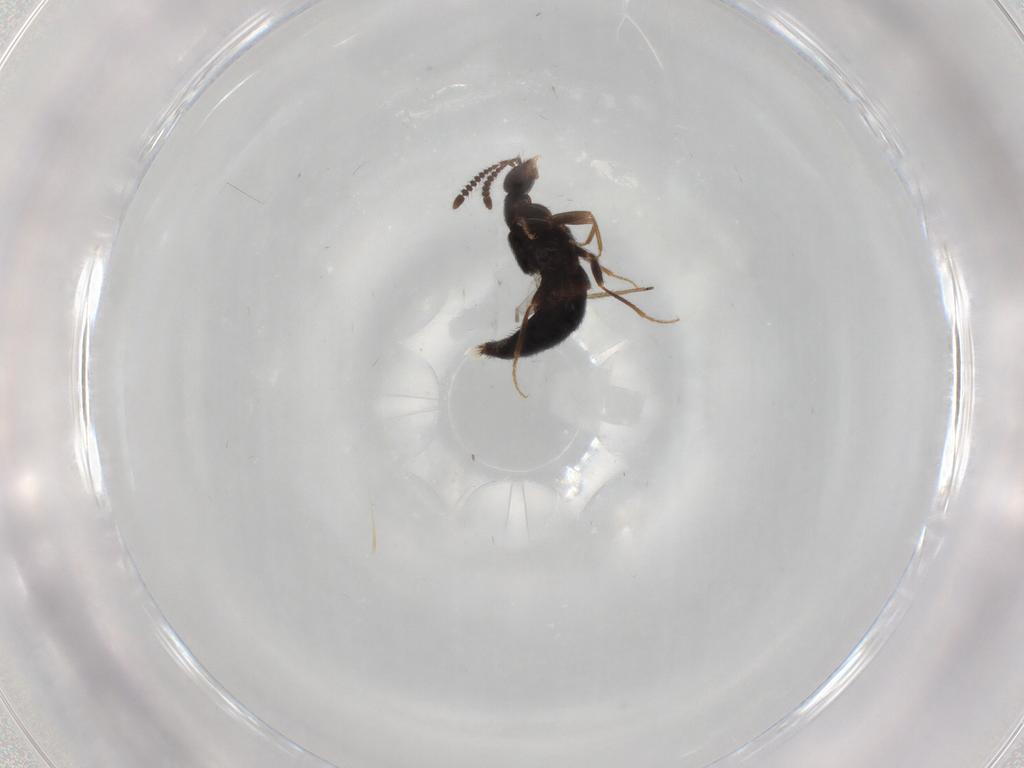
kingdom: Animalia
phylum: Arthropoda
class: Insecta
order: Coleoptera
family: Staphylinidae
